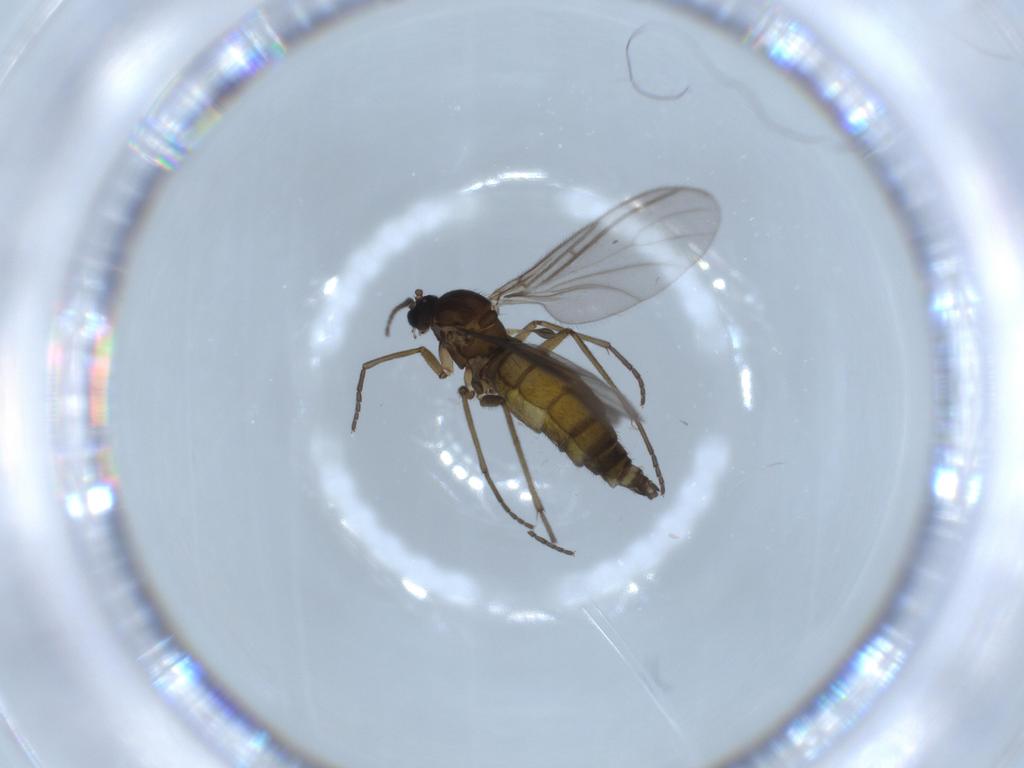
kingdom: Animalia
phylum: Arthropoda
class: Insecta
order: Diptera
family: Sciaridae
